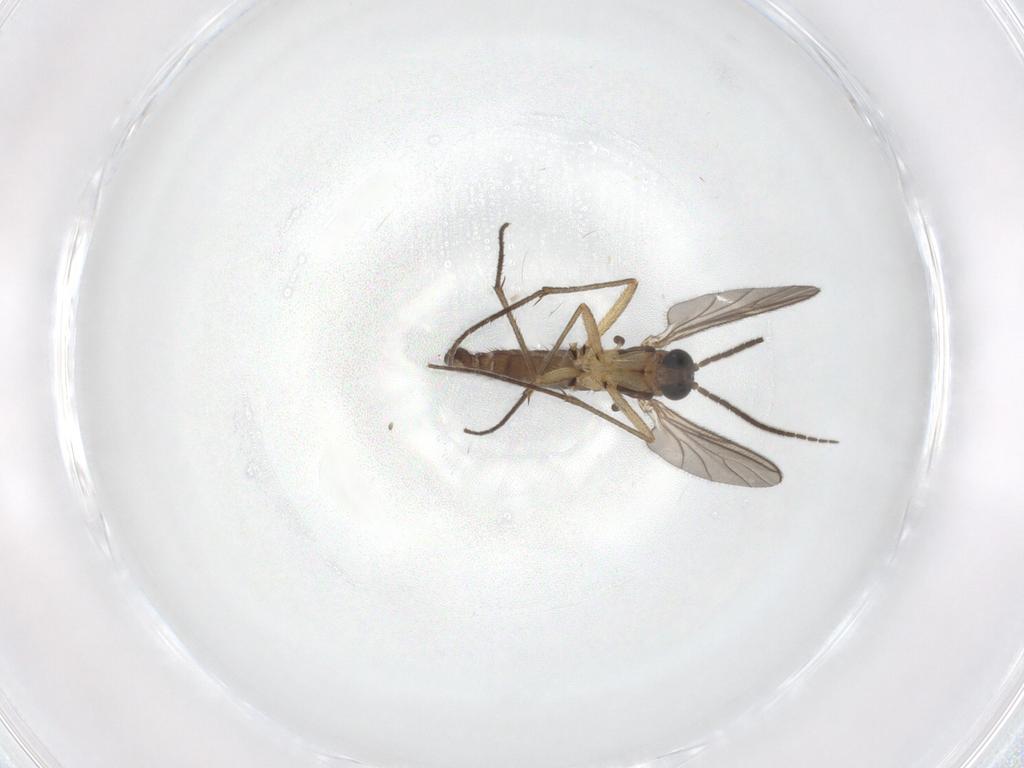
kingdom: Animalia
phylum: Arthropoda
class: Insecta
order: Diptera
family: Sciaridae
